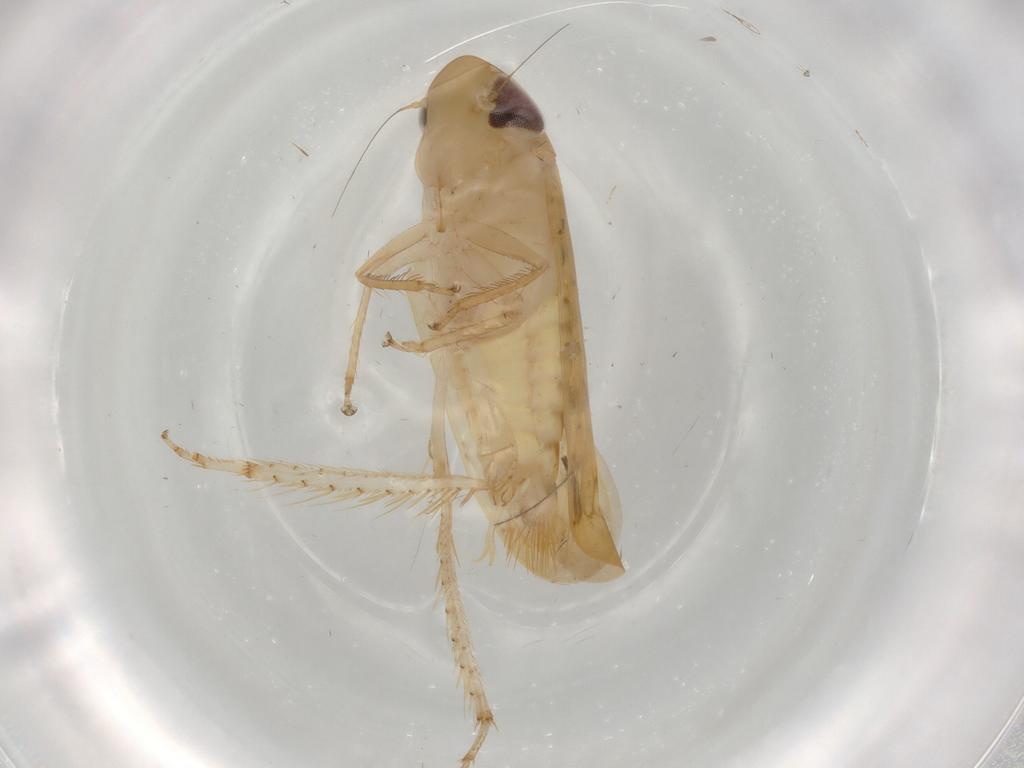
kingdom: Animalia
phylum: Arthropoda
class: Insecta
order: Hemiptera
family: Cicadellidae
